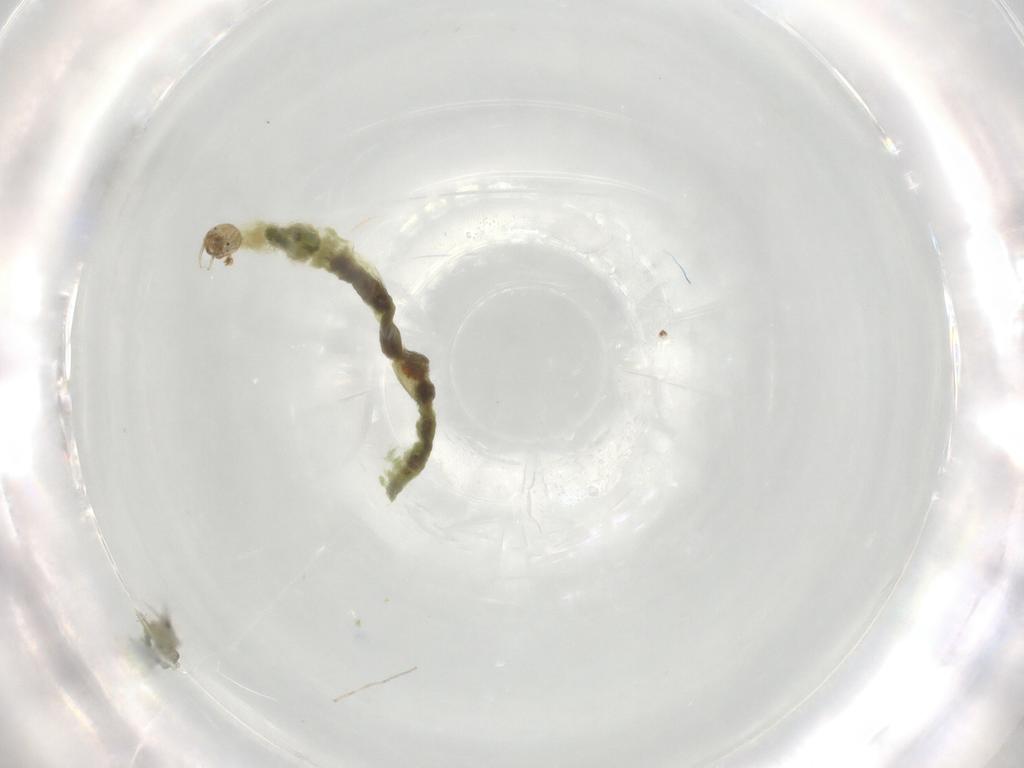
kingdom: Animalia
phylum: Arthropoda
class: Insecta
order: Diptera
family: Chironomidae
